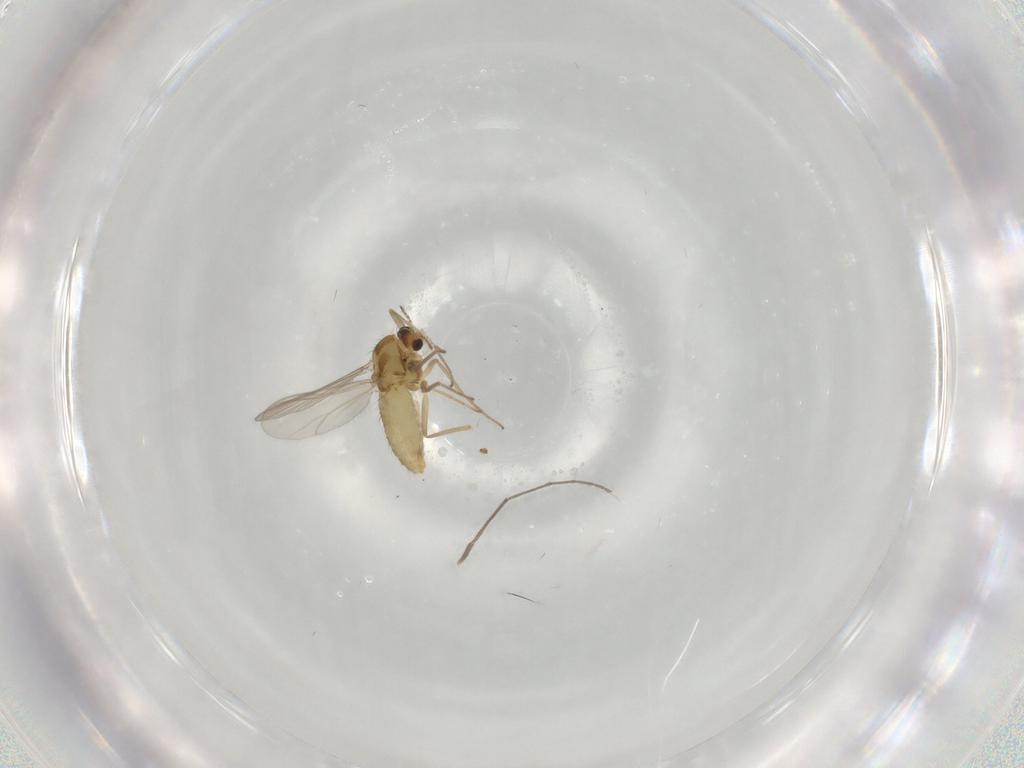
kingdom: Animalia
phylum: Arthropoda
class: Insecta
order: Diptera
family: Chironomidae
